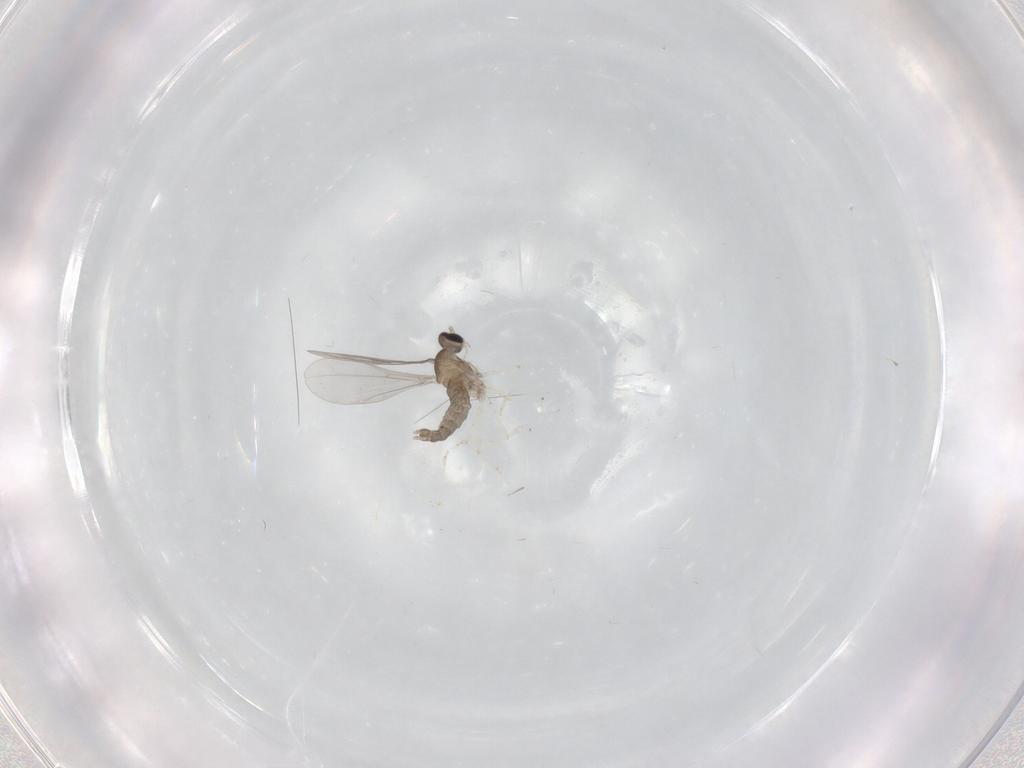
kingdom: Animalia
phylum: Arthropoda
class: Insecta
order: Diptera
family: Cecidomyiidae
